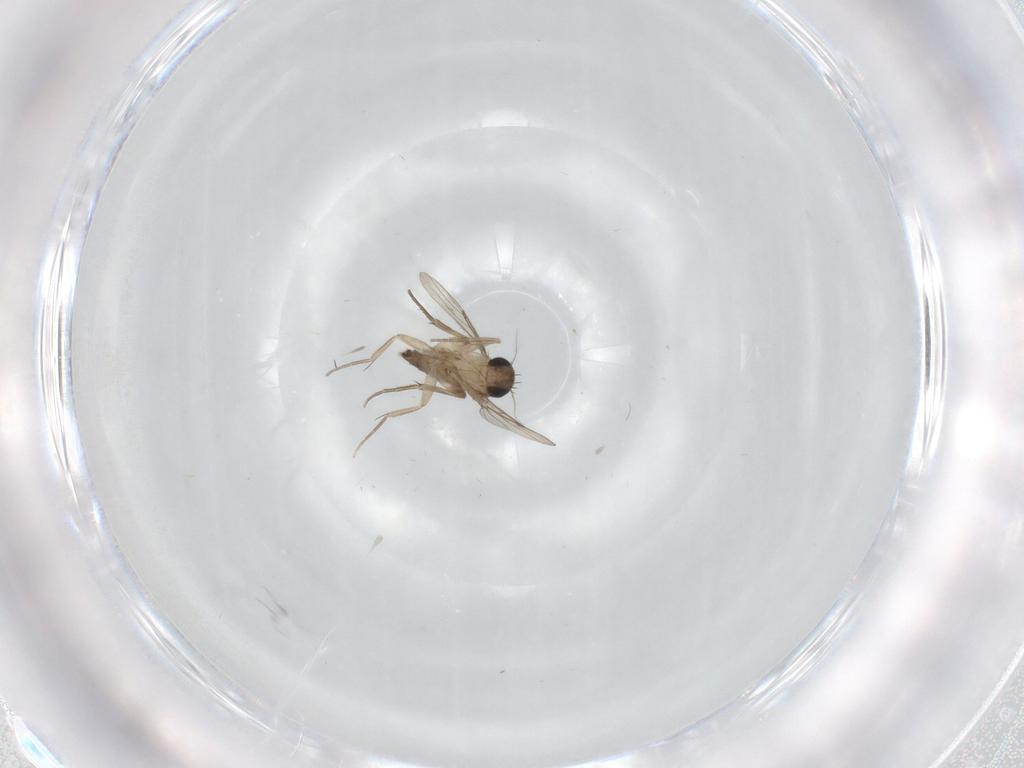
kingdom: Animalia
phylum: Arthropoda
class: Insecta
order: Diptera
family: Phoridae
